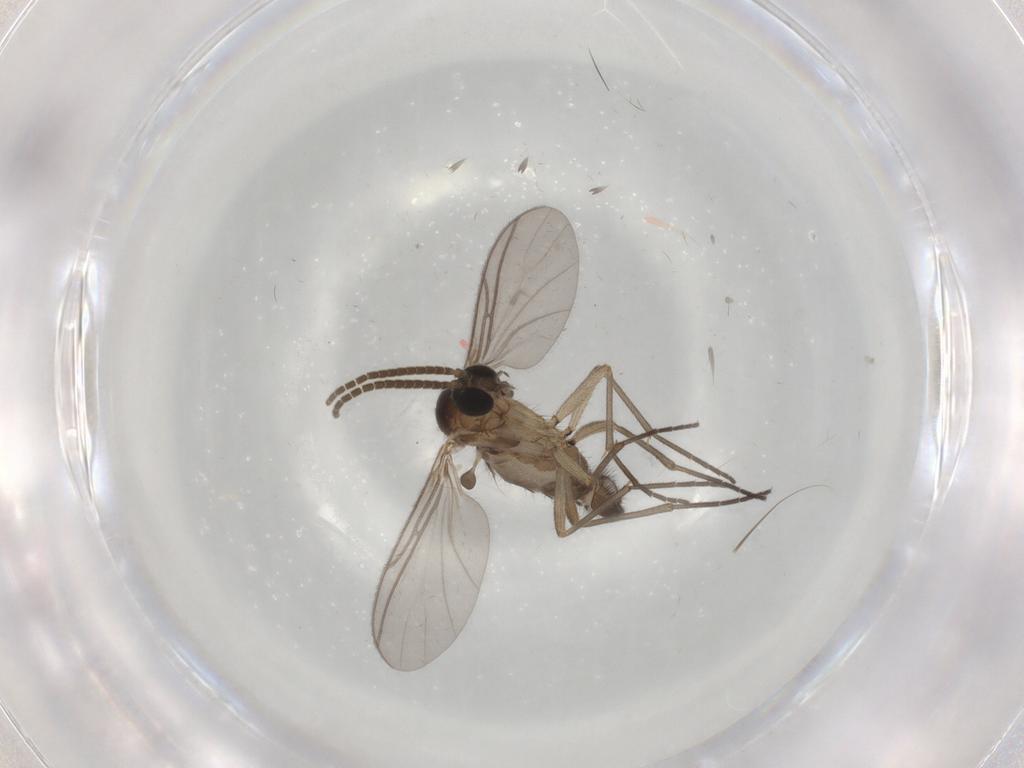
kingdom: Animalia
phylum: Arthropoda
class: Insecta
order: Diptera
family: Sciaridae
